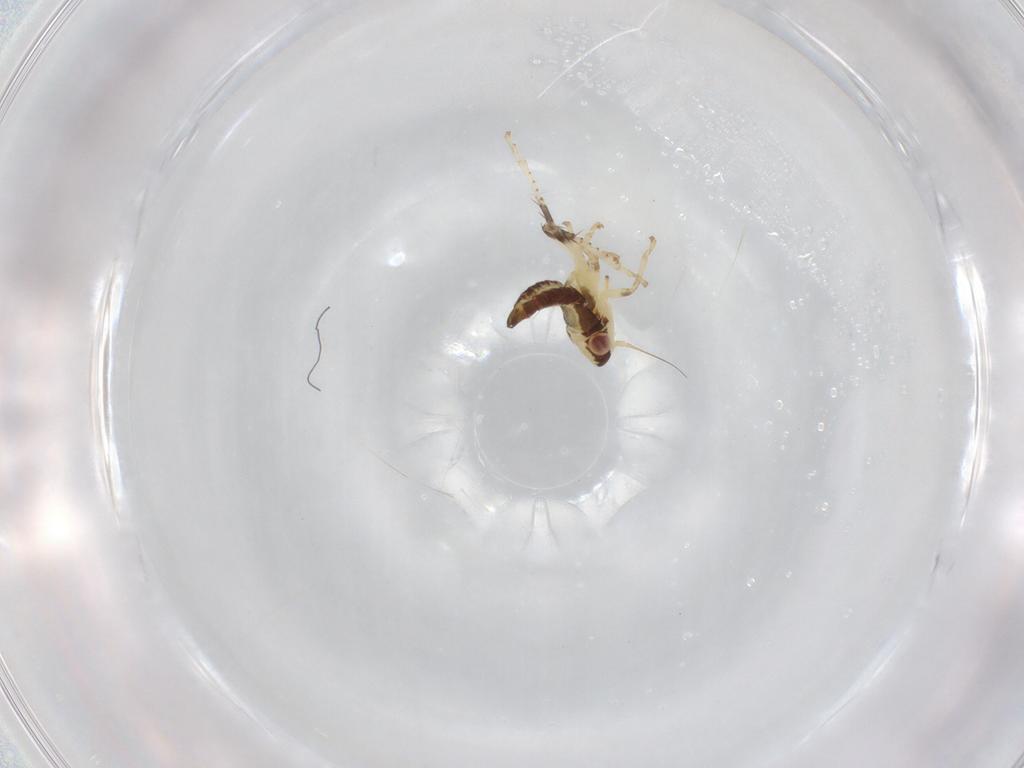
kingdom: Animalia
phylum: Arthropoda
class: Insecta
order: Hemiptera
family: Cicadellidae
